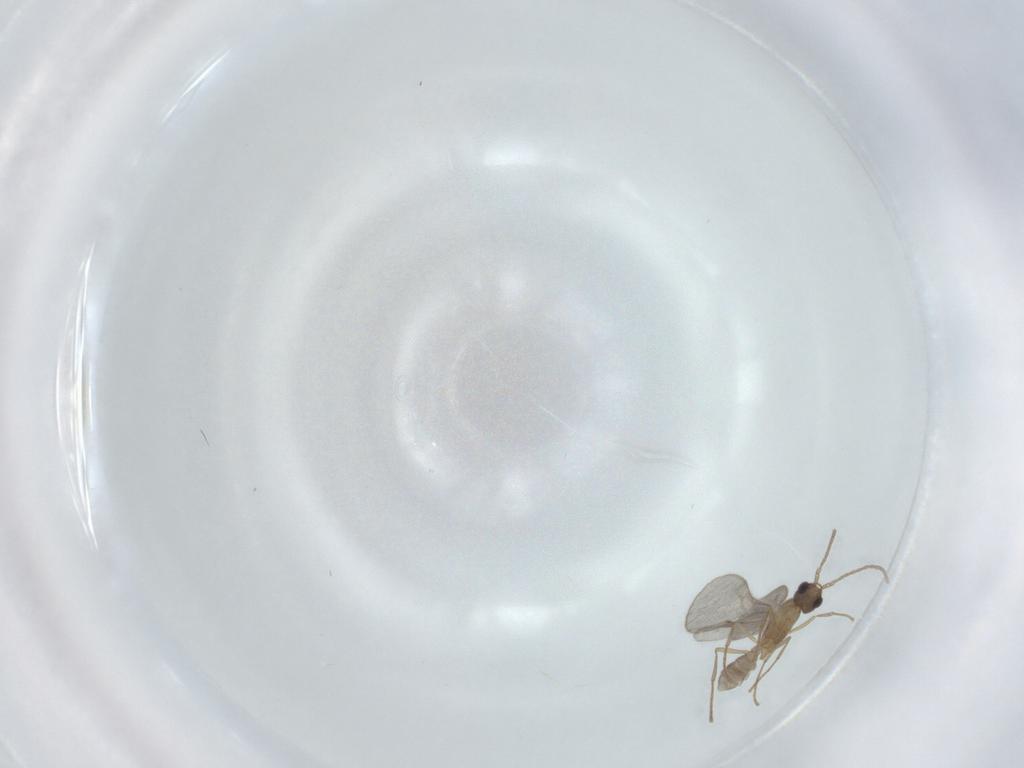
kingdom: Animalia
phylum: Arthropoda
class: Insecta
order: Hymenoptera
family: Formicidae
